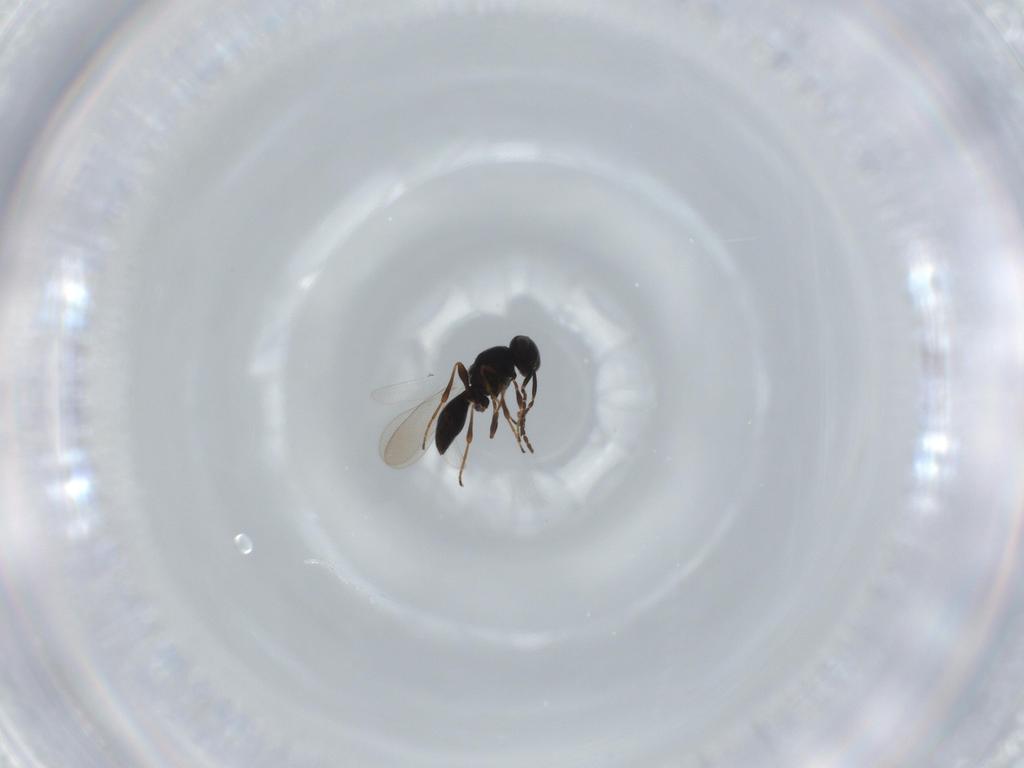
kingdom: Animalia
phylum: Arthropoda
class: Insecta
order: Hymenoptera
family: Platygastridae
